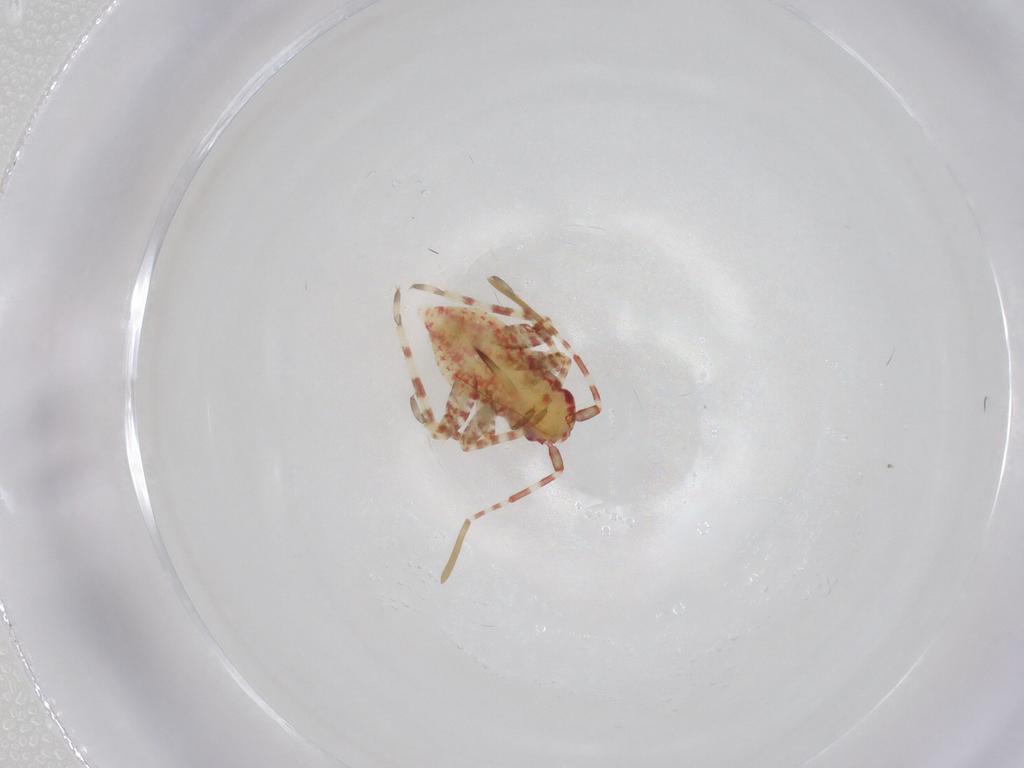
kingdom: Animalia
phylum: Arthropoda
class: Insecta
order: Hemiptera
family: Miridae
